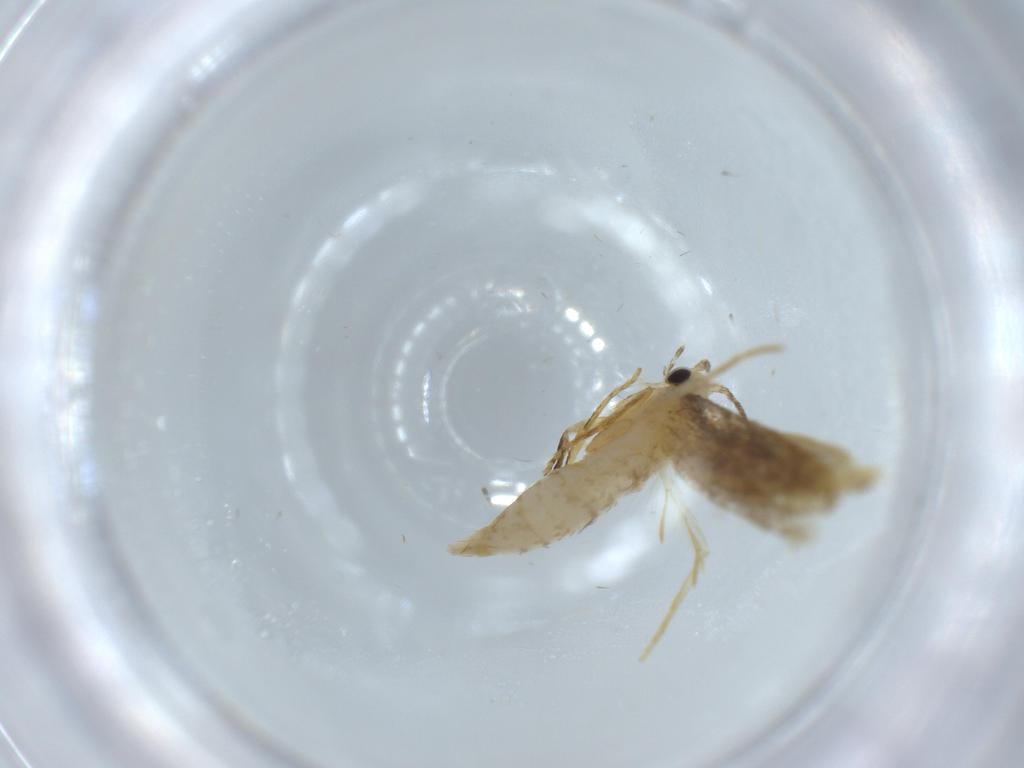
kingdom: Animalia
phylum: Arthropoda
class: Insecta
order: Lepidoptera
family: Tineidae
